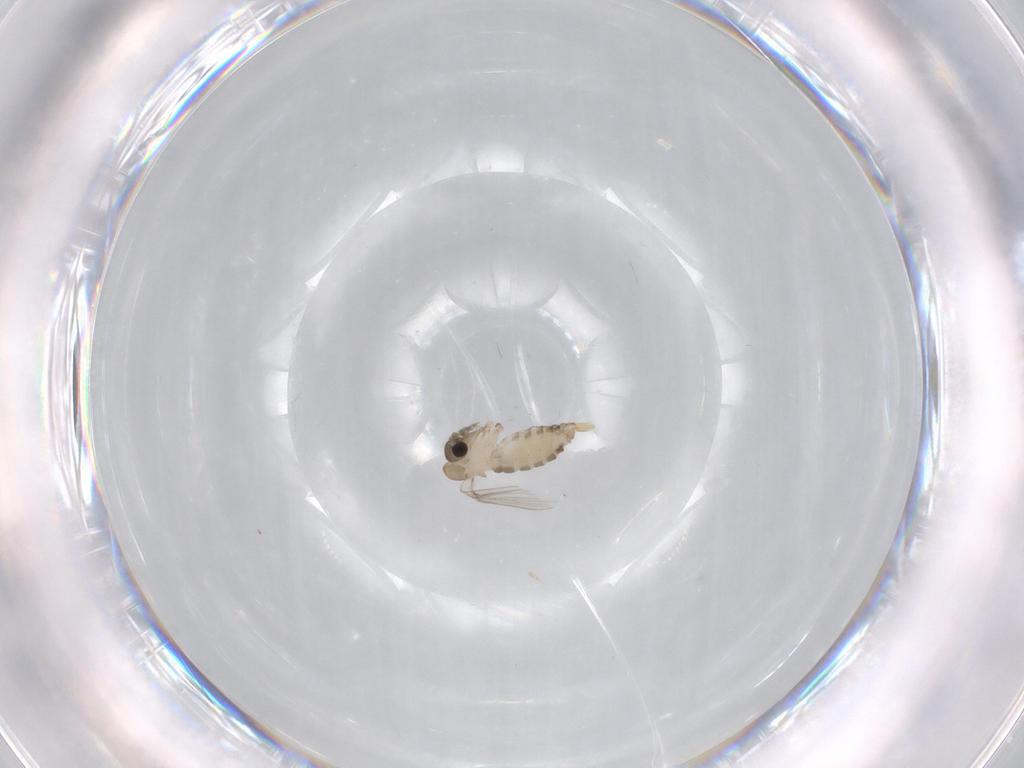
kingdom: Animalia
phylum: Arthropoda
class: Insecta
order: Diptera
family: Psychodidae
